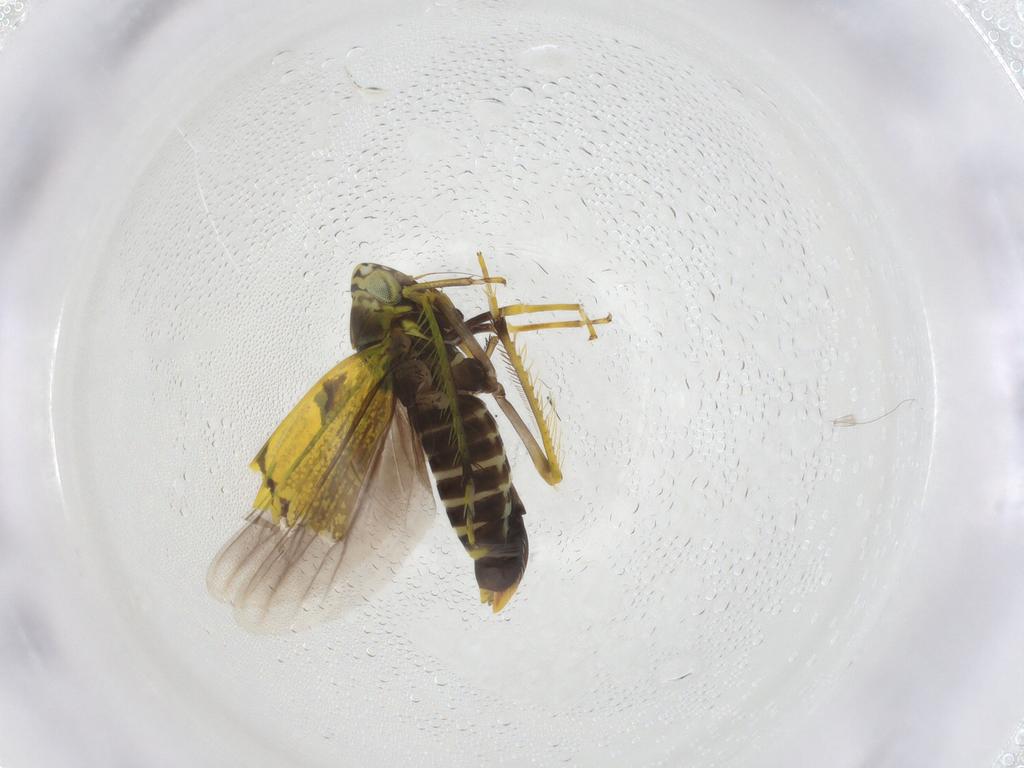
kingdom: Animalia
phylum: Arthropoda
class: Insecta
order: Hemiptera
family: Cicadellidae
